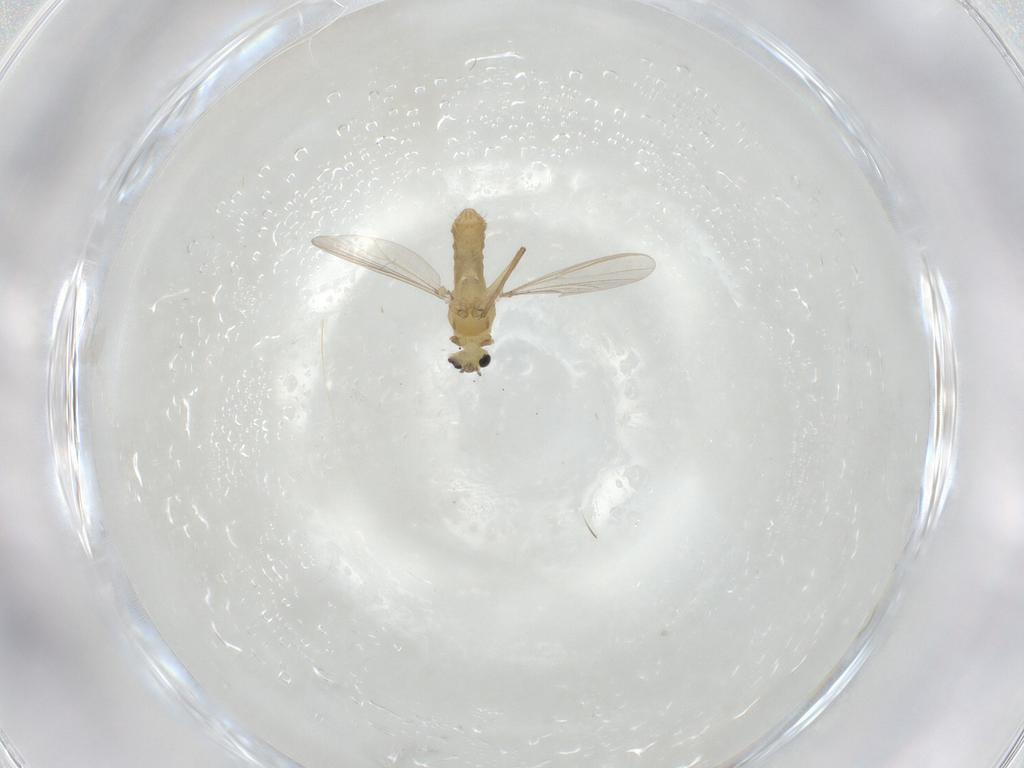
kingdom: Animalia
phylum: Arthropoda
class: Insecta
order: Diptera
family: Chironomidae
